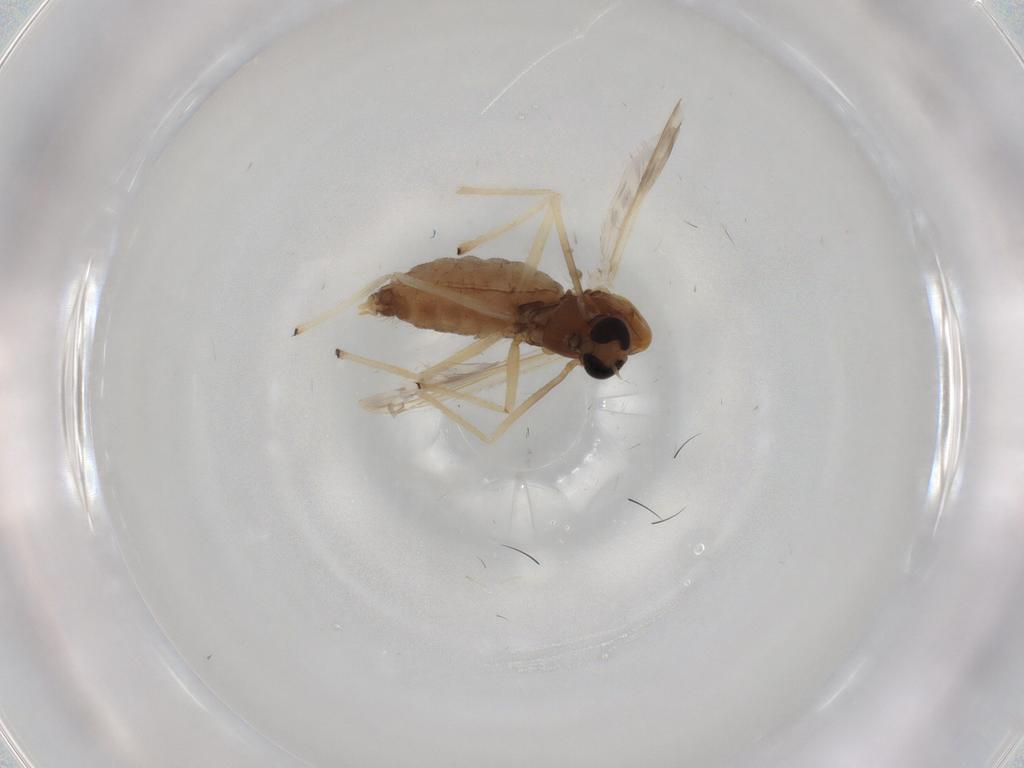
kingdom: Animalia
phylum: Arthropoda
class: Insecta
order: Diptera
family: Chironomidae
